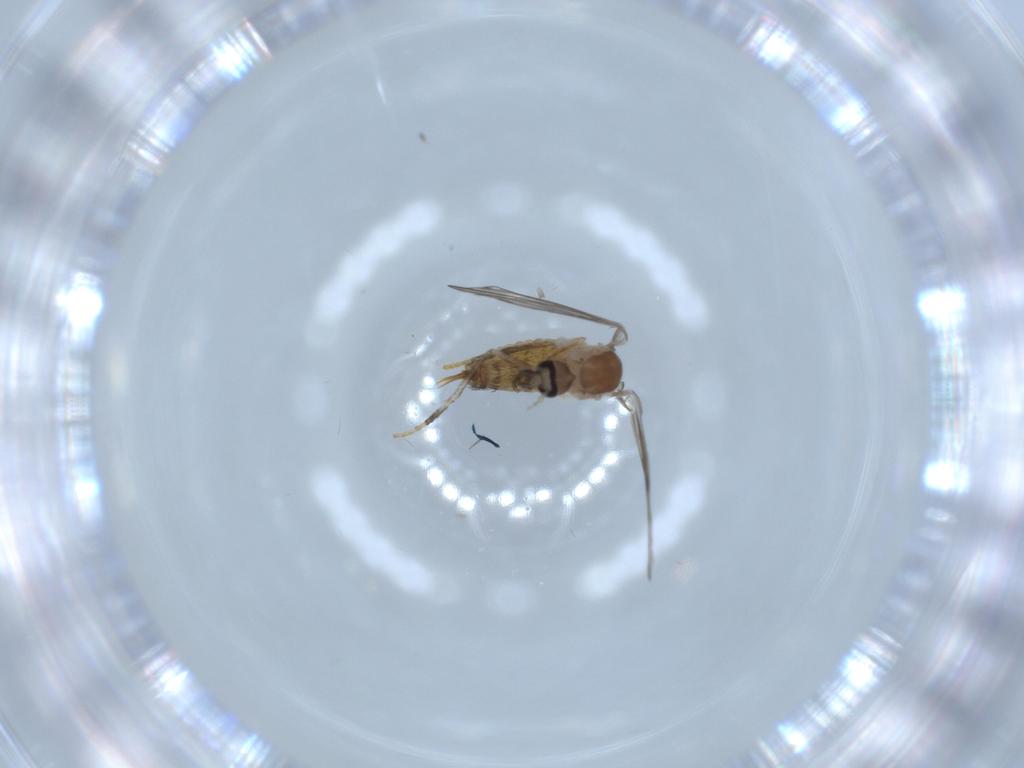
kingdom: Animalia
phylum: Arthropoda
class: Insecta
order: Diptera
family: Psychodidae
